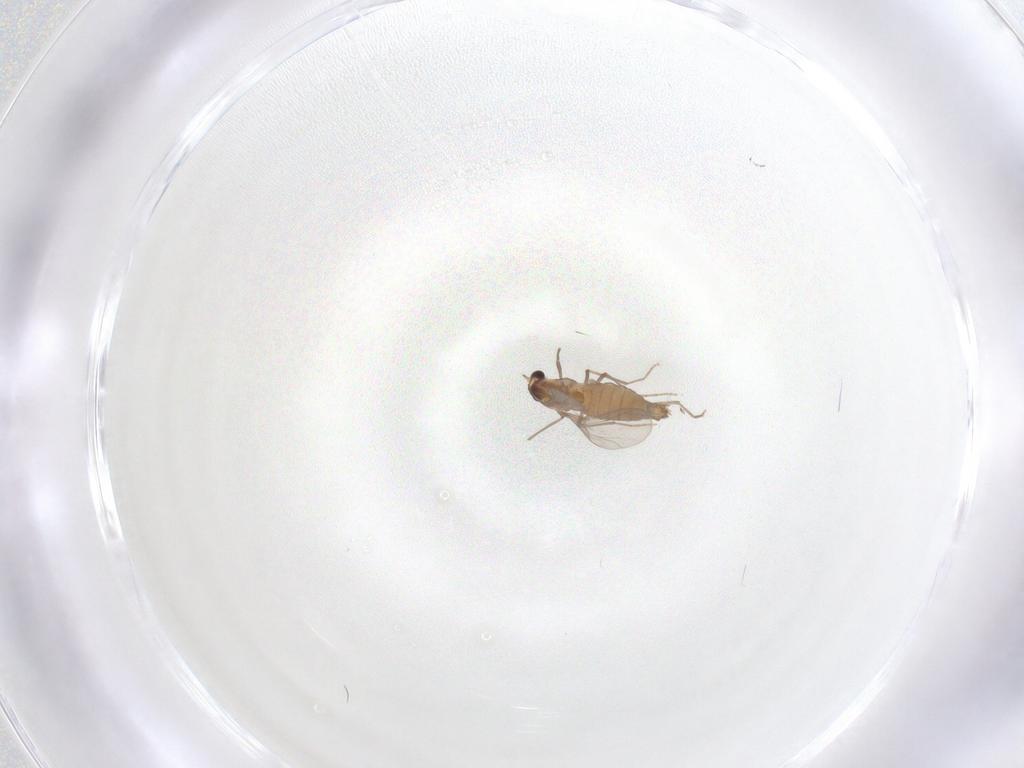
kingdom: Animalia
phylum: Arthropoda
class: Insecta
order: Diptera
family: Chironomidae
